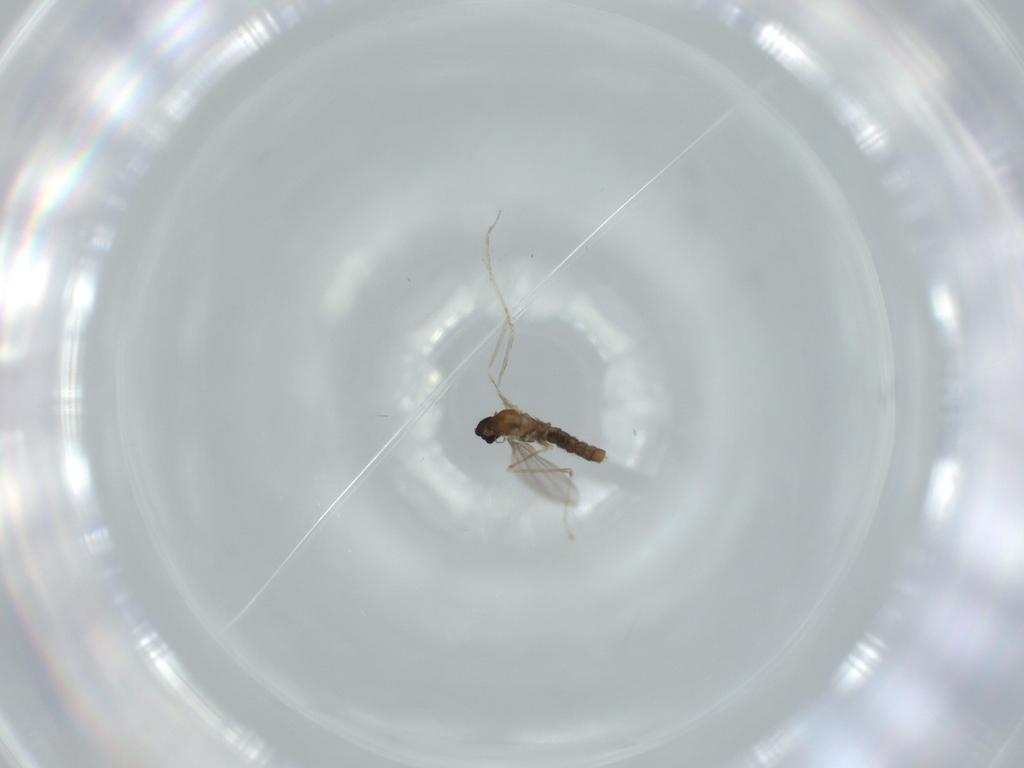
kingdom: Animalia
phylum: Arthropoda
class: Insecta
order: Diptera
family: Cecidomyiidae
